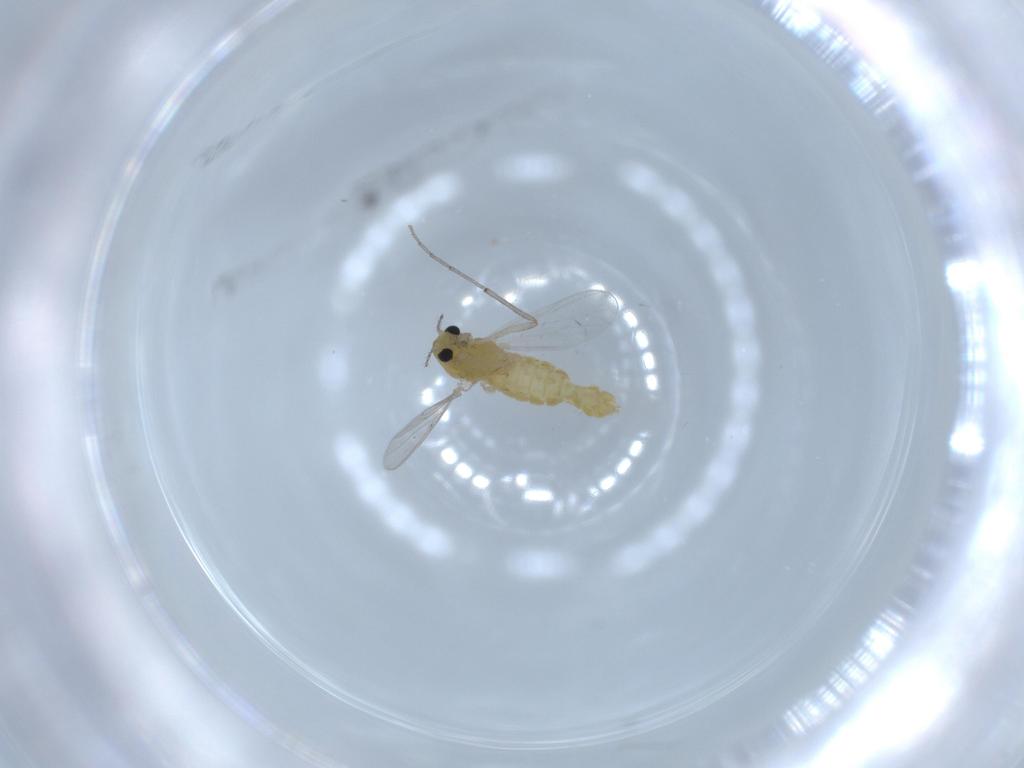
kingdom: Animalia
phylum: Arthropoda
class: Insecta
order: Diptera
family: Chironomidae
